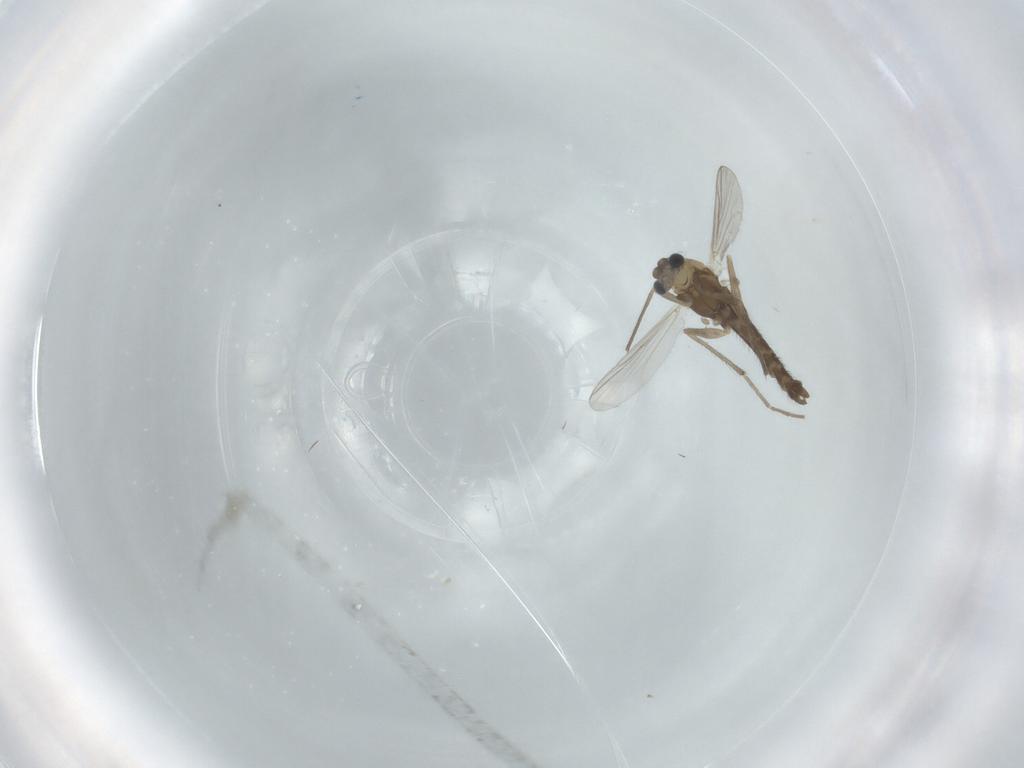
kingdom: Animalia
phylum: Arthropoda
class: Insecta
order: Diptera
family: Chironomidae
